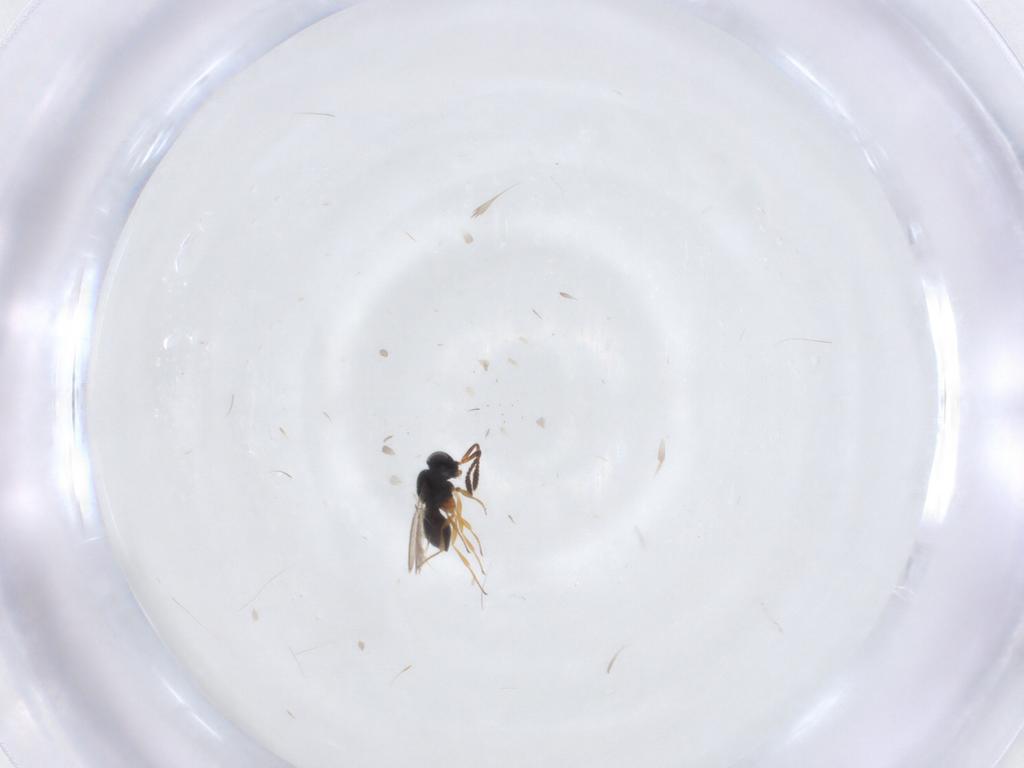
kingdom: Animalia
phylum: Arthropoda
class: Insecta
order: Hymenoptera
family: Scelionidae
